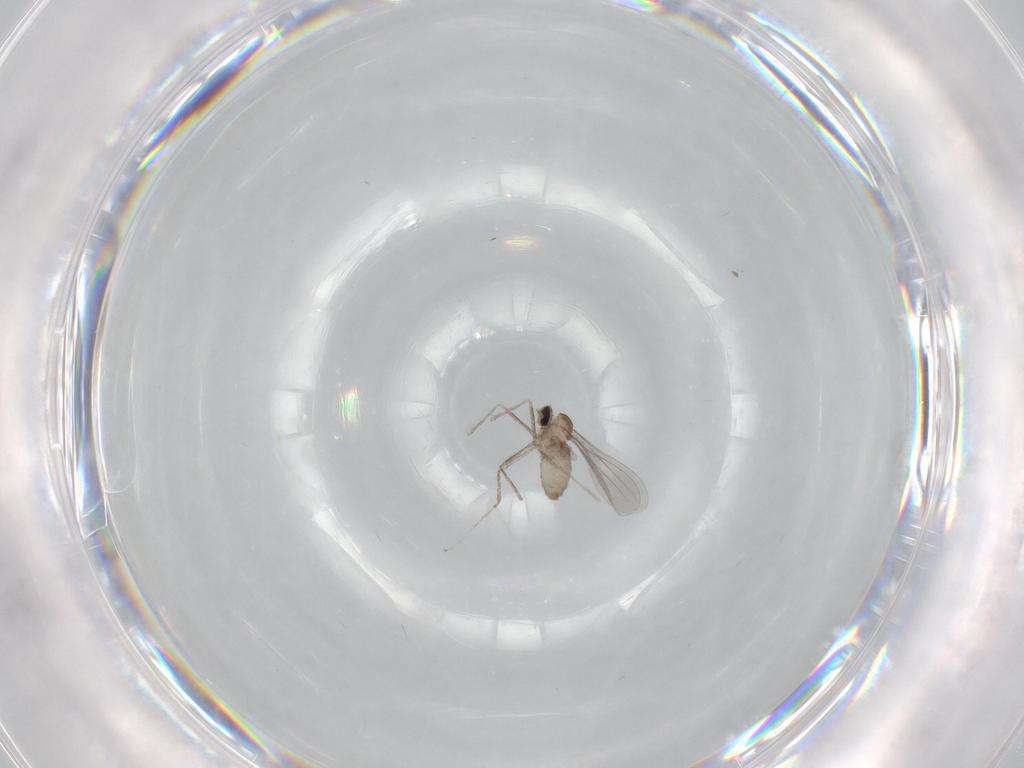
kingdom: Animalia
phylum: Arthropoda
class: Insecta
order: Diptera
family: Cecidomyiidae
